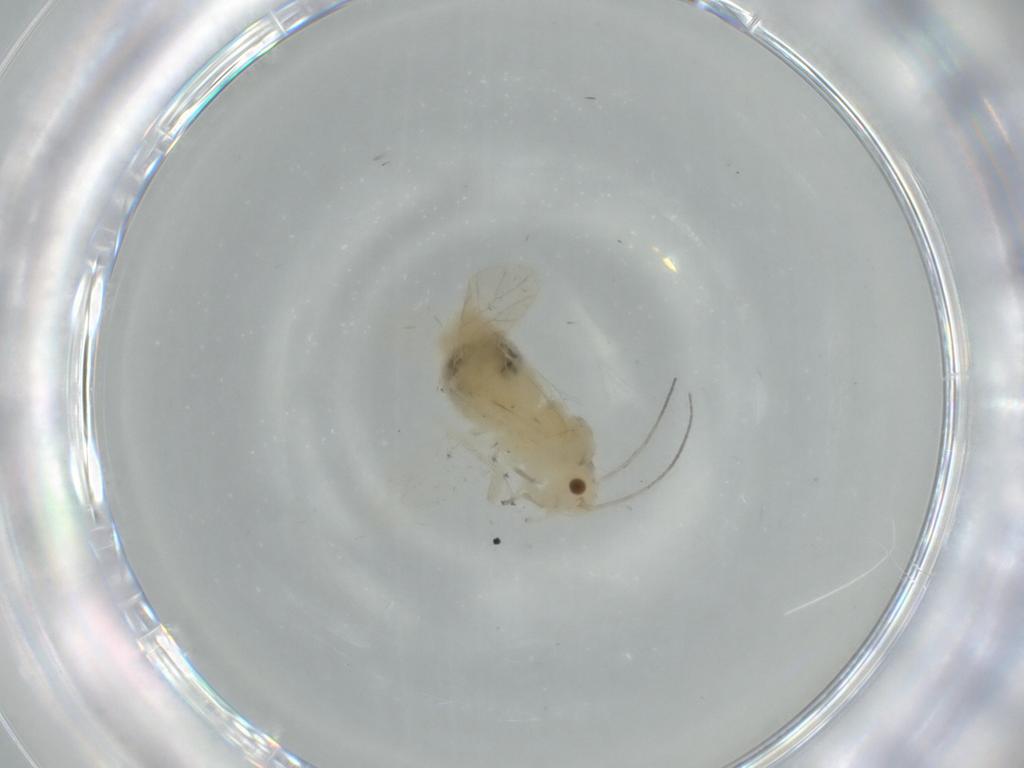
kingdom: Animalia
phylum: Arthropoda
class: Insecta
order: Psocodea
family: Caeciliusidae
